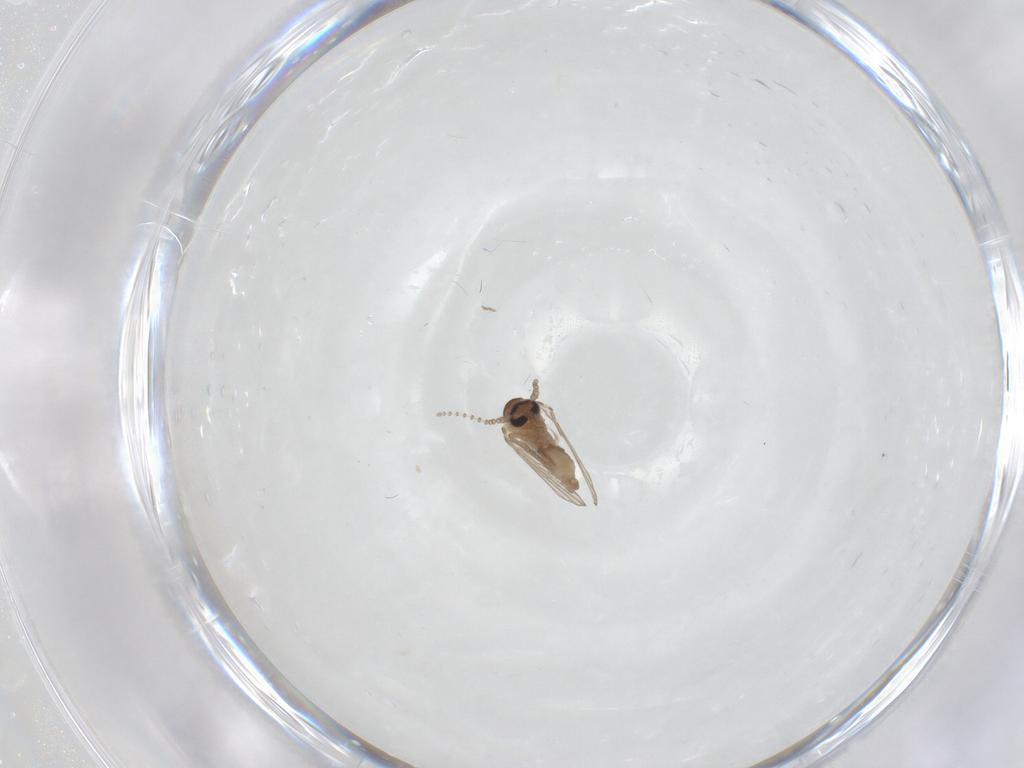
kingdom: Animalia
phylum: Arthropoda
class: Insecta
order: Diptera
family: Psychodidae
